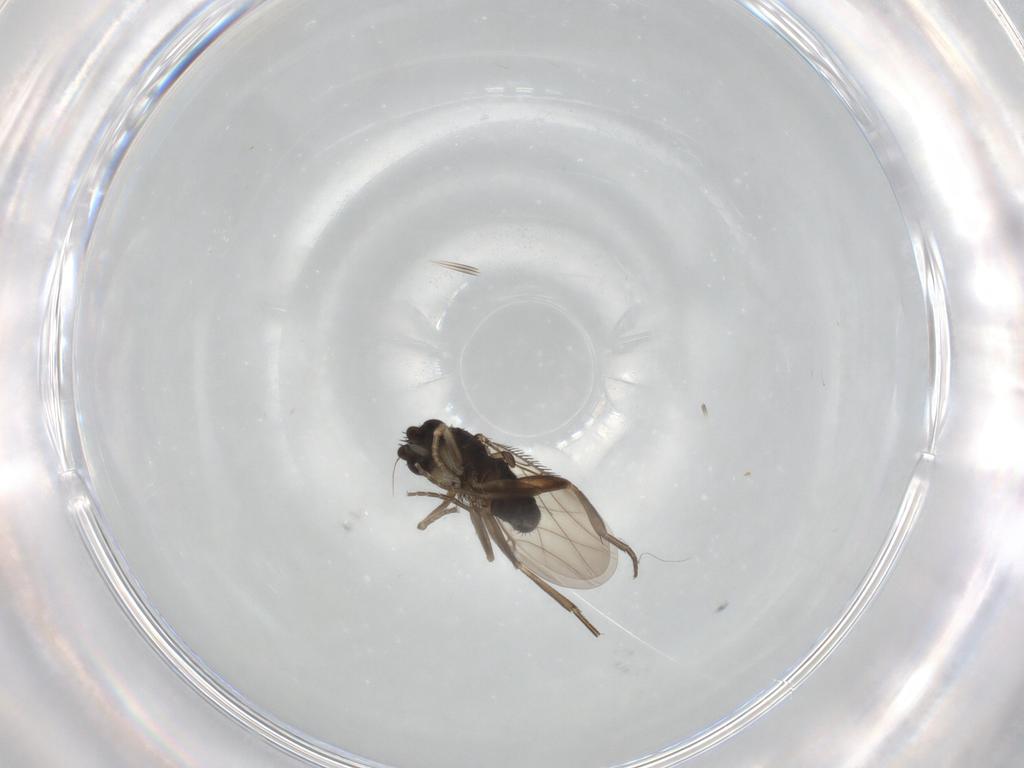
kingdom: Animalia
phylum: Arthropoda
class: Insecta
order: Diptera
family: Phoridae
